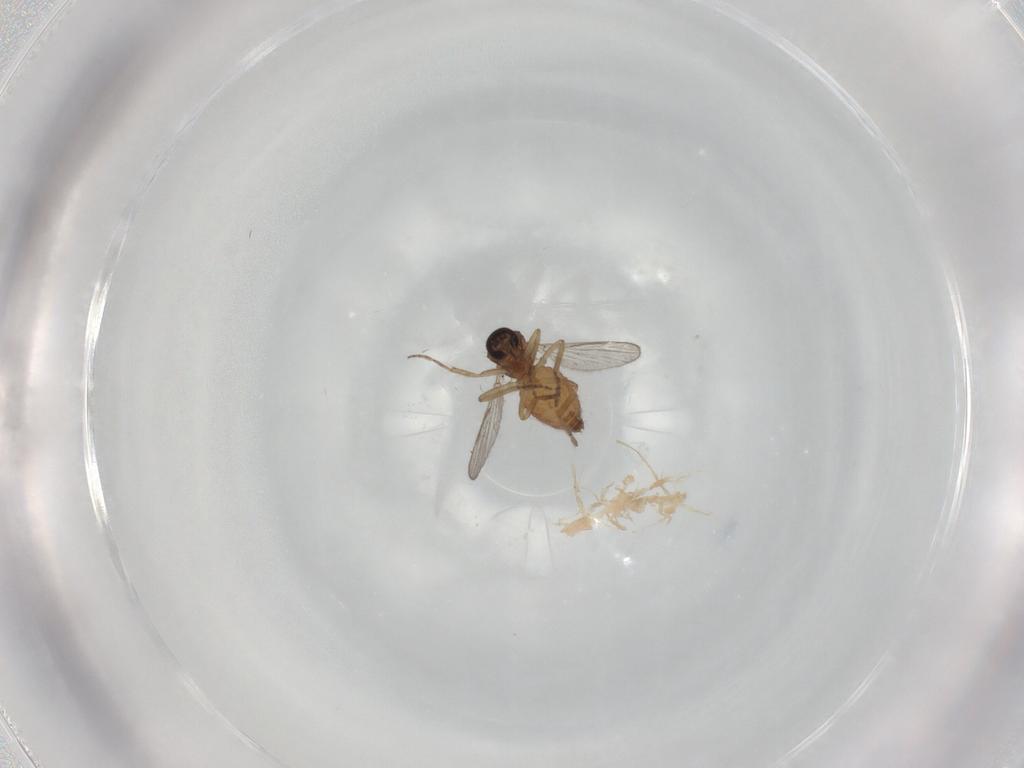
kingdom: Animalia
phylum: Arthropoda
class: Insecta
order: Diptera
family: Dolichopodidae
